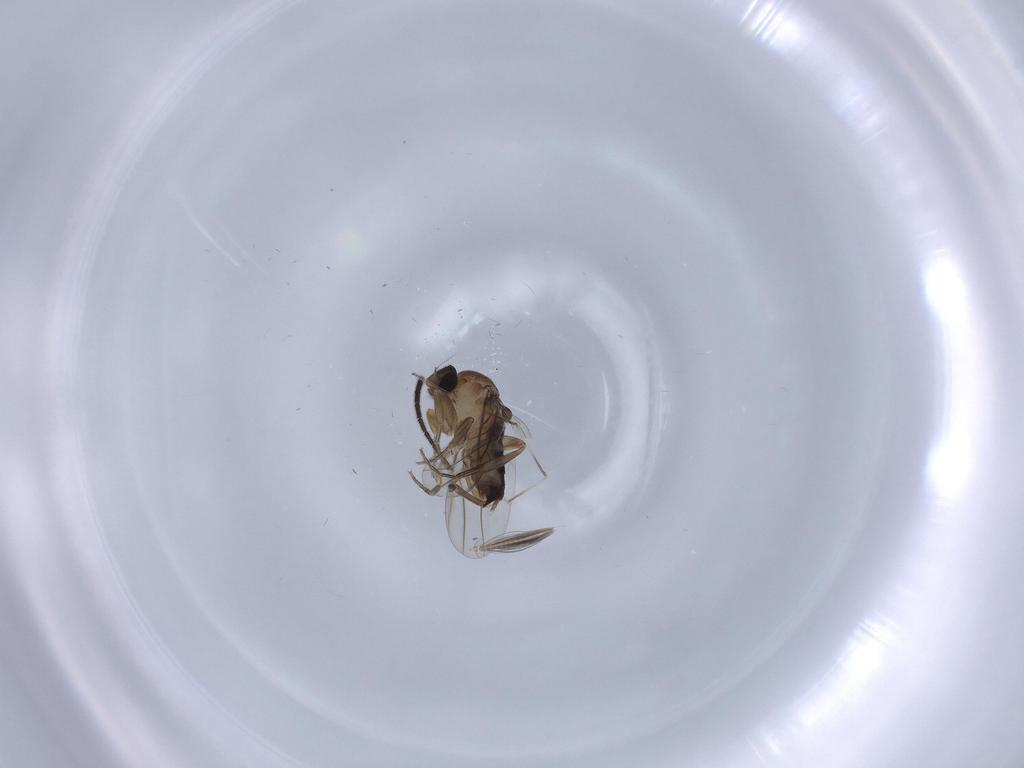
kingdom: Animalia
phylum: Arthropoda
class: Insecta
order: Diptera
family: Phoridae
